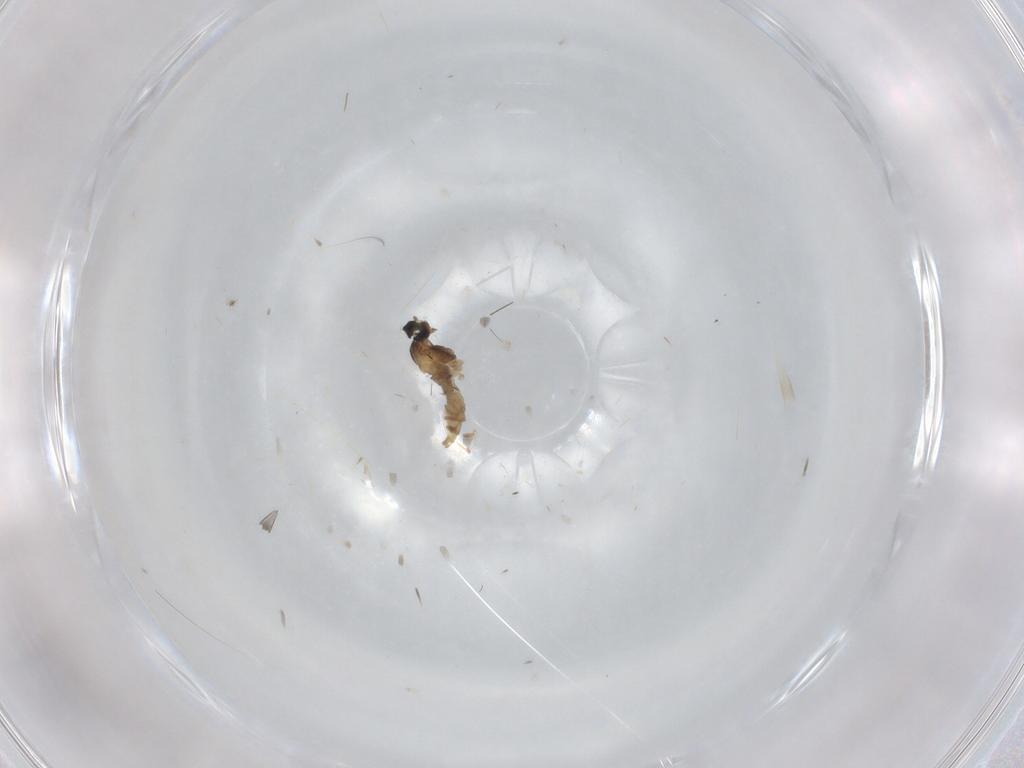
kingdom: Animalia
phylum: Arthropoda
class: Insecta
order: Diptera
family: Cecidomyiidae
